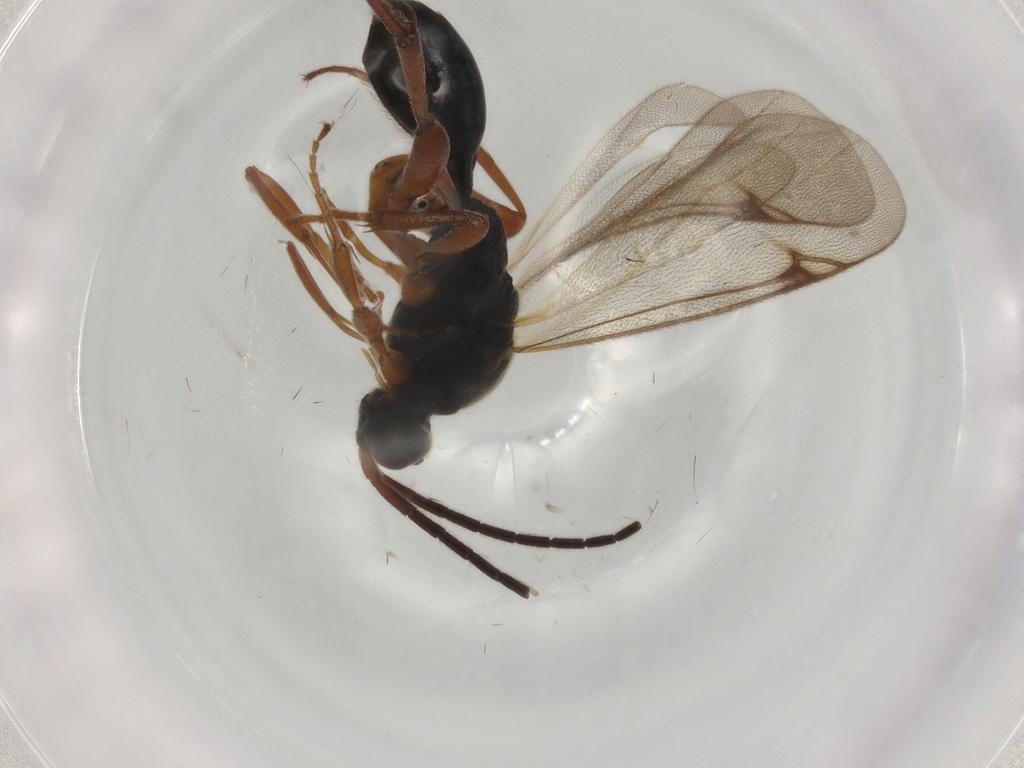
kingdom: Animalia
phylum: Arthropoda
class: Insecta
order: Hymenoptera
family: Proctotrupidae
